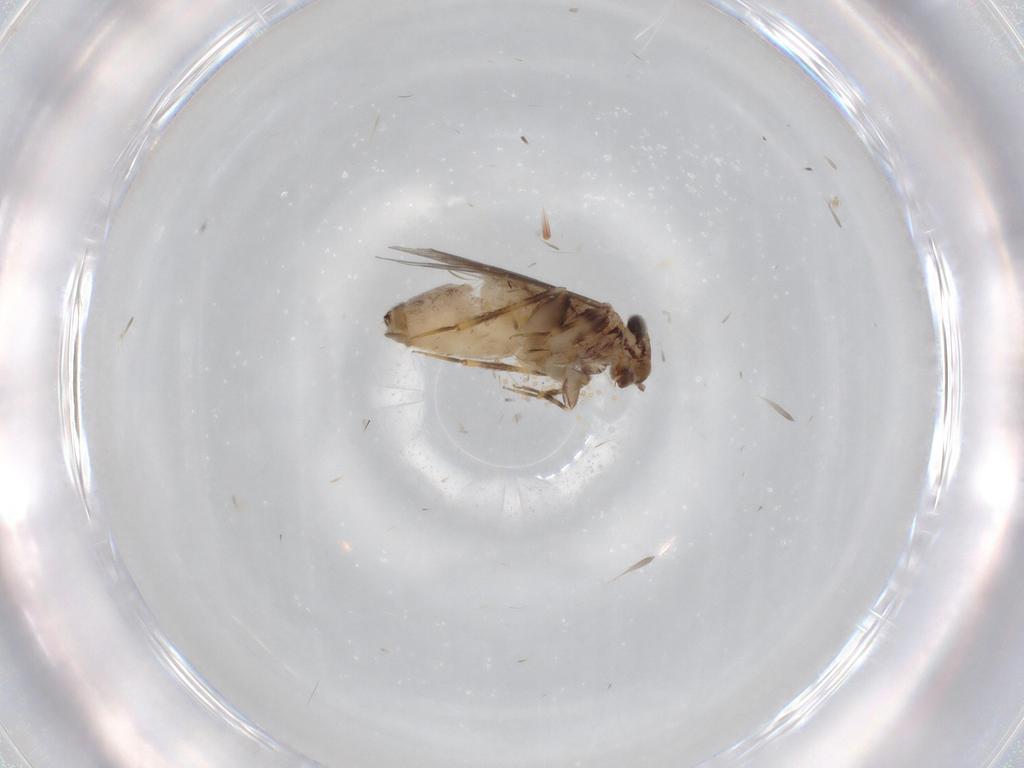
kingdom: Animalia
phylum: Arthropoda
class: Insecta
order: Psocodea
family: Lepidopsocidae
